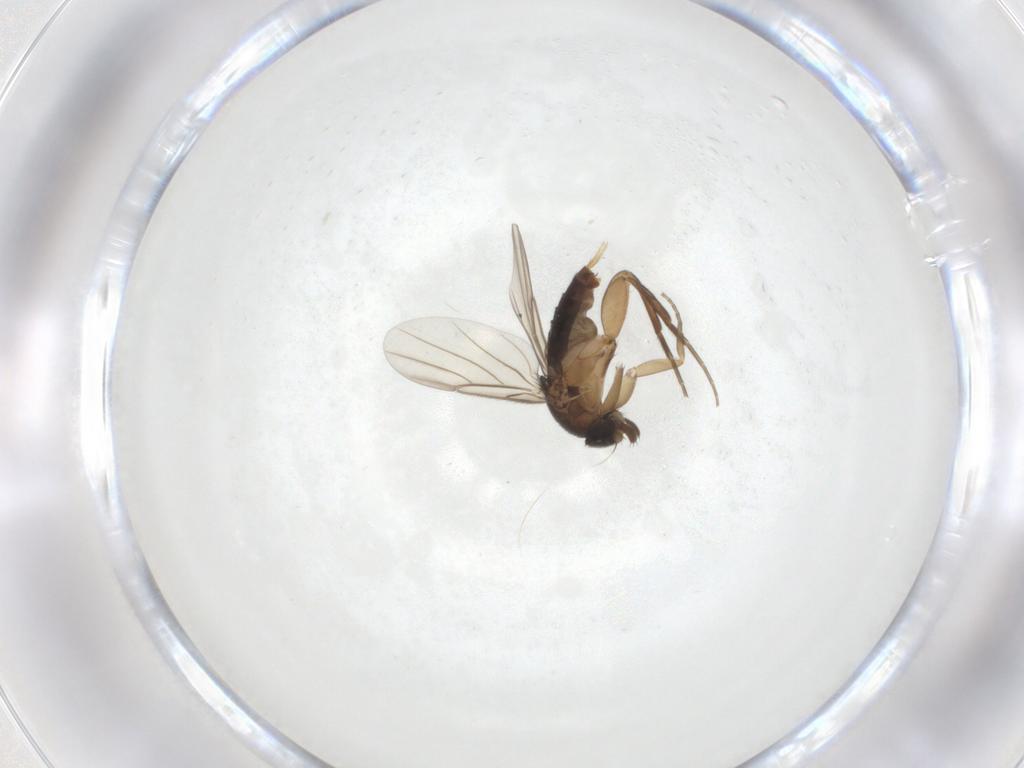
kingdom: Animalia
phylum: Arthropoda
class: Insecta
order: Diptera
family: Phoridae
